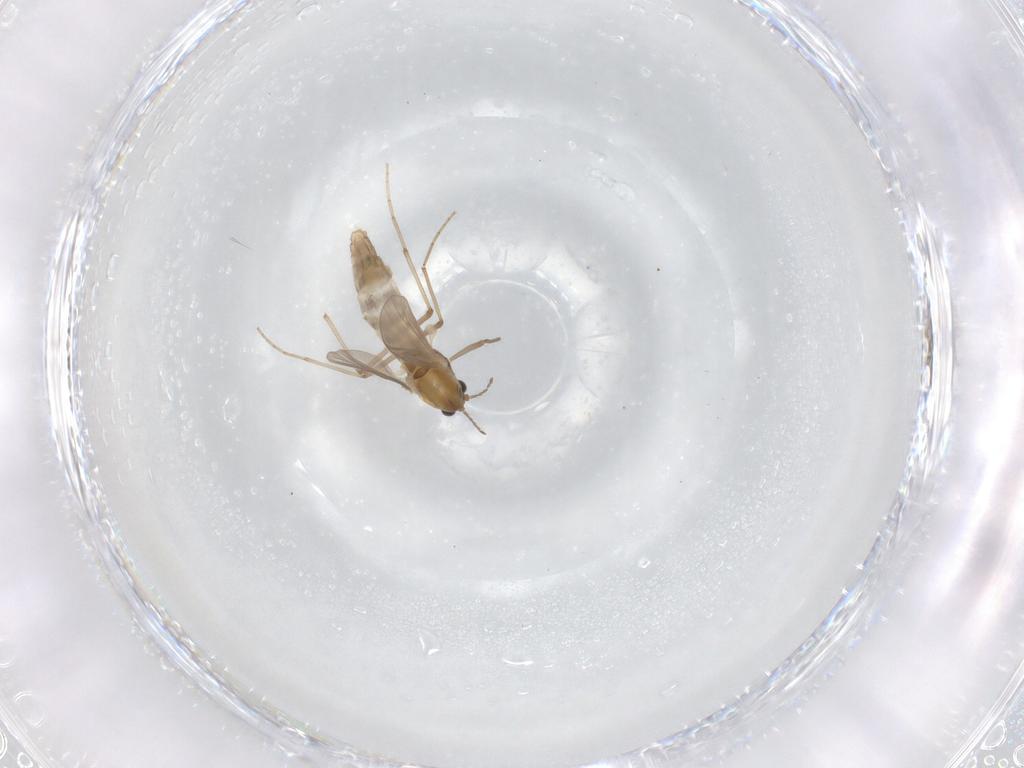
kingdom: Animalia
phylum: Arthropoda
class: Insecta
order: Diptera
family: Chironomidae
